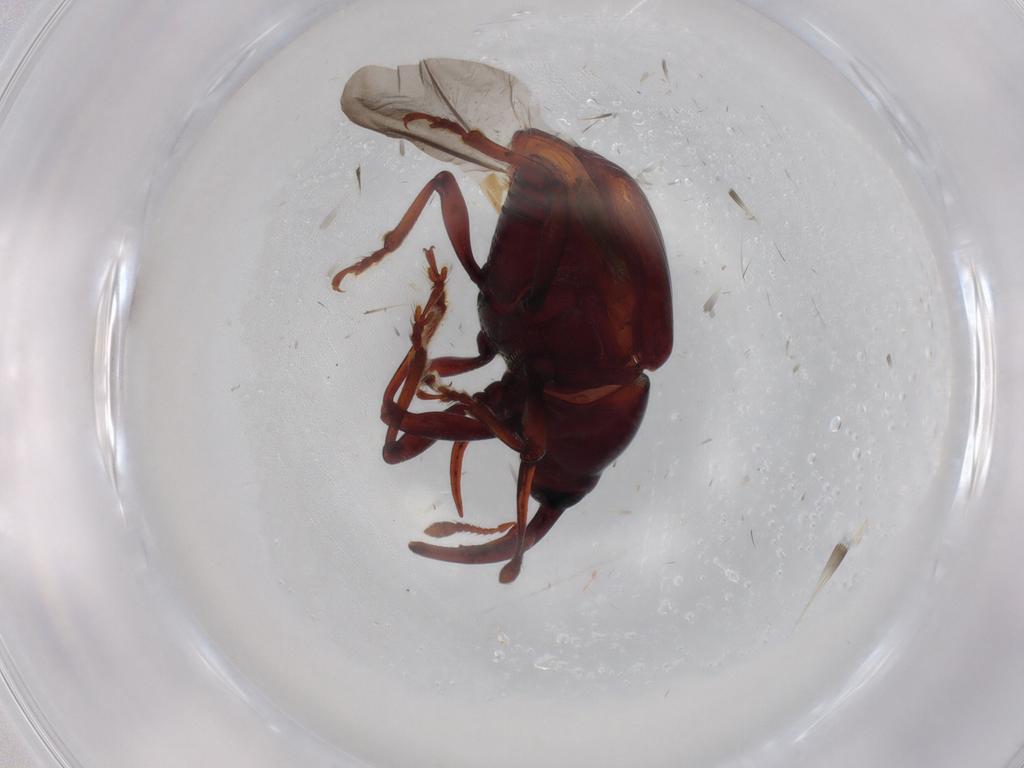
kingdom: Animalia
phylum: Arthropoda
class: Insecta
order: Coleoptera
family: Curculionidae
